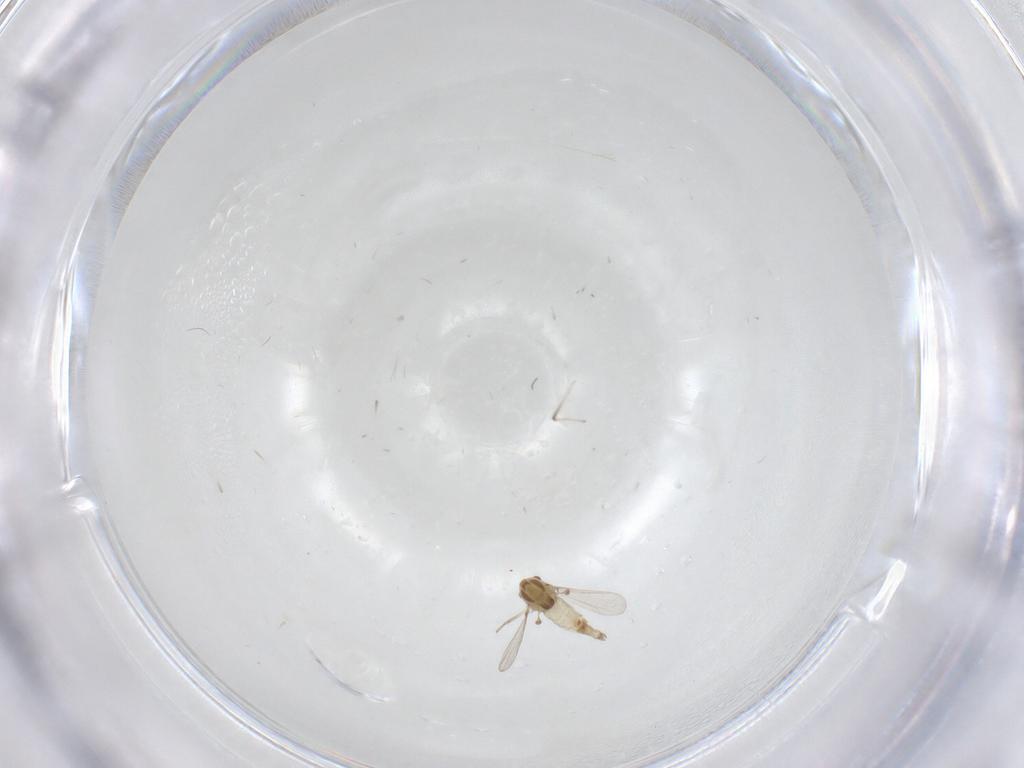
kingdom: Animalia
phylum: Arthropoda
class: Insecta
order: Diptera
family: Chironomidae
